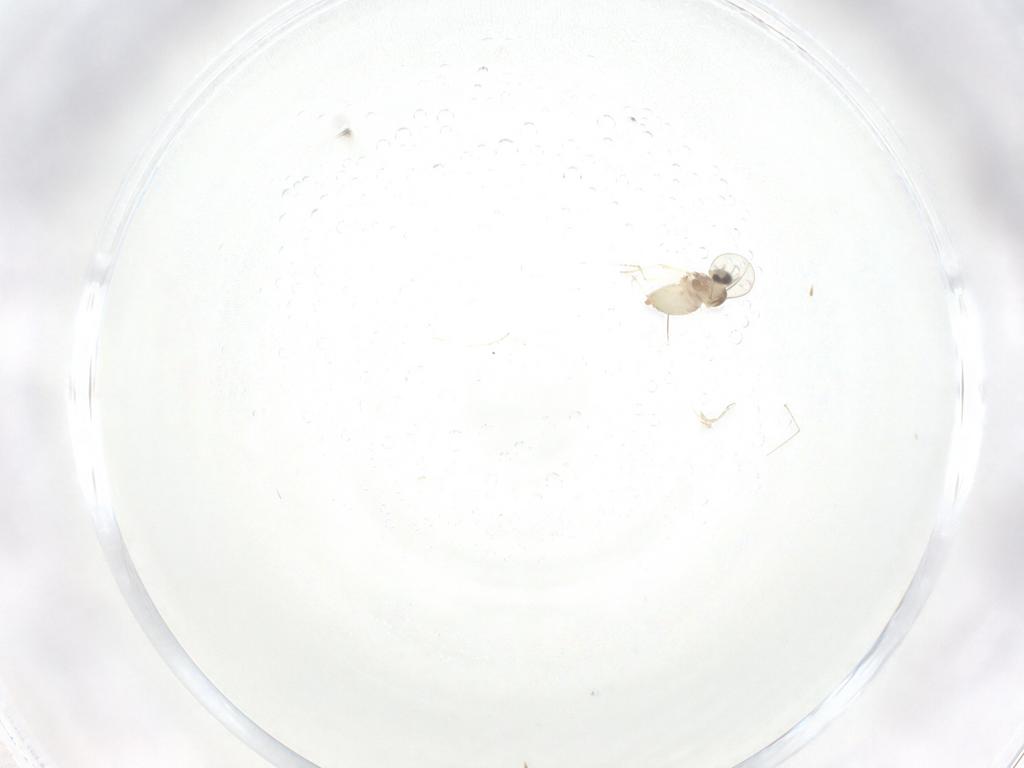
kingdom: Animalia
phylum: Arthropoda
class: Insecta
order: Diptera
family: Cecidomyiidae
